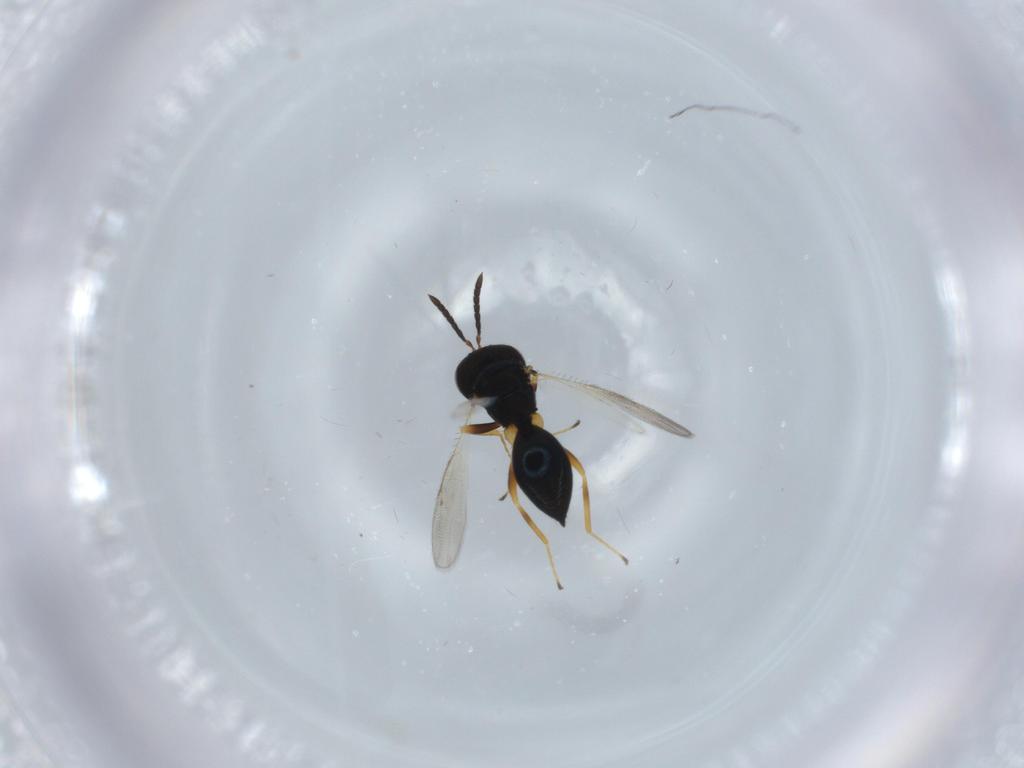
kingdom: Animalia
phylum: Arthropoda
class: Insecta
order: Hymenoptera
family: Pteromalidae
